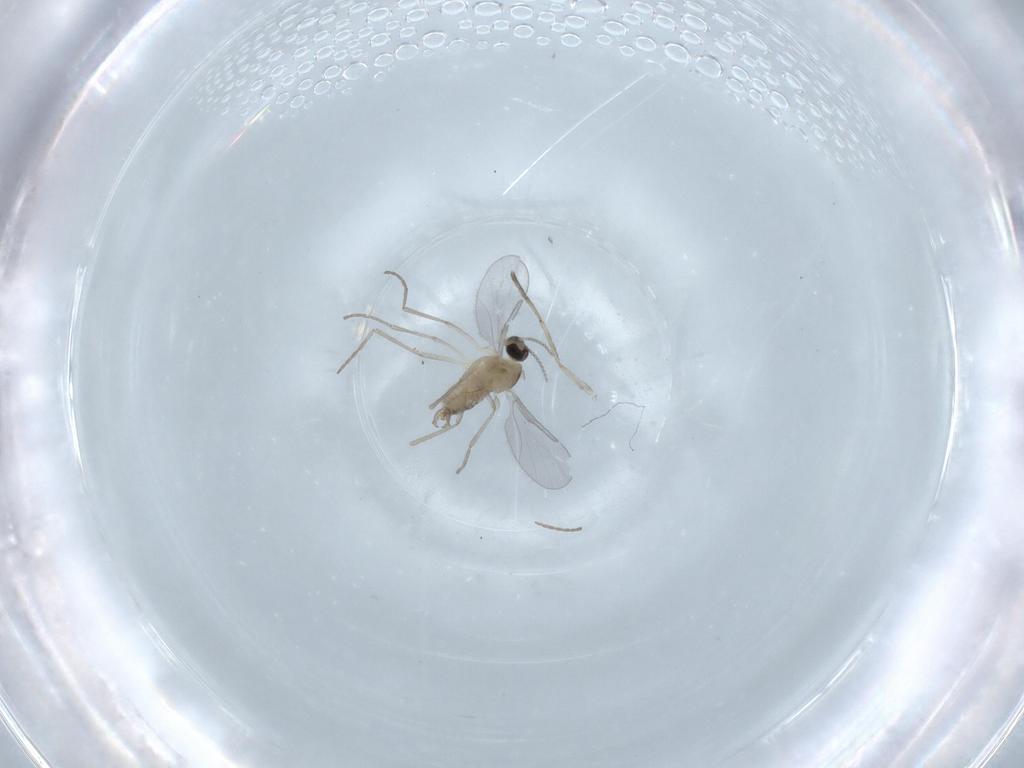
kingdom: Animalia
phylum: Arthropoda
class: Insecta
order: Diptera
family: Cecidomyiidae
